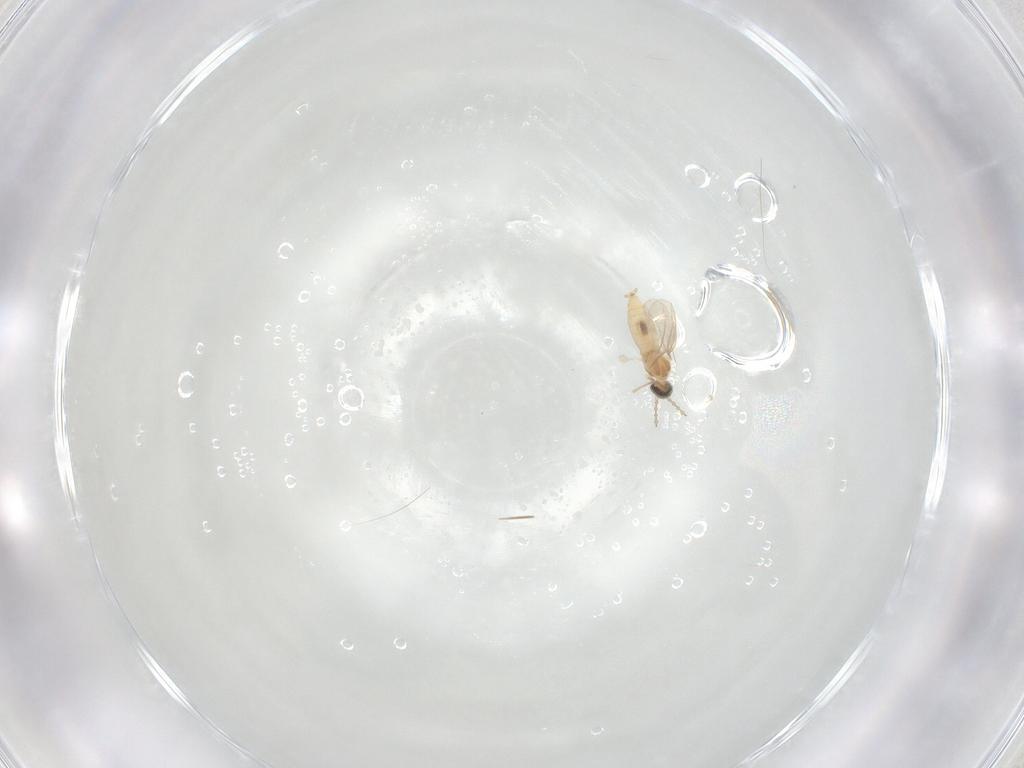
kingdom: Animalia
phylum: Arthropoda
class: Insecta
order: Diptera
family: Cecidomyiidae
